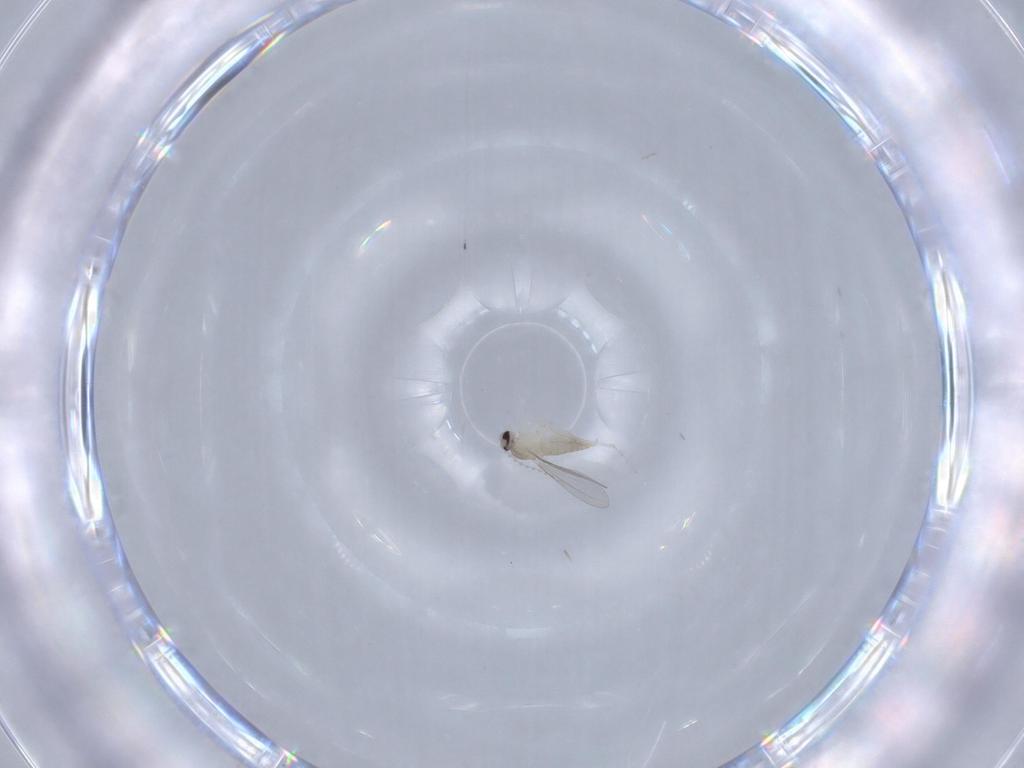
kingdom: Animalia
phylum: Arthropoda
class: Insecta
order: Diptera
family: Cecidomyiidae
